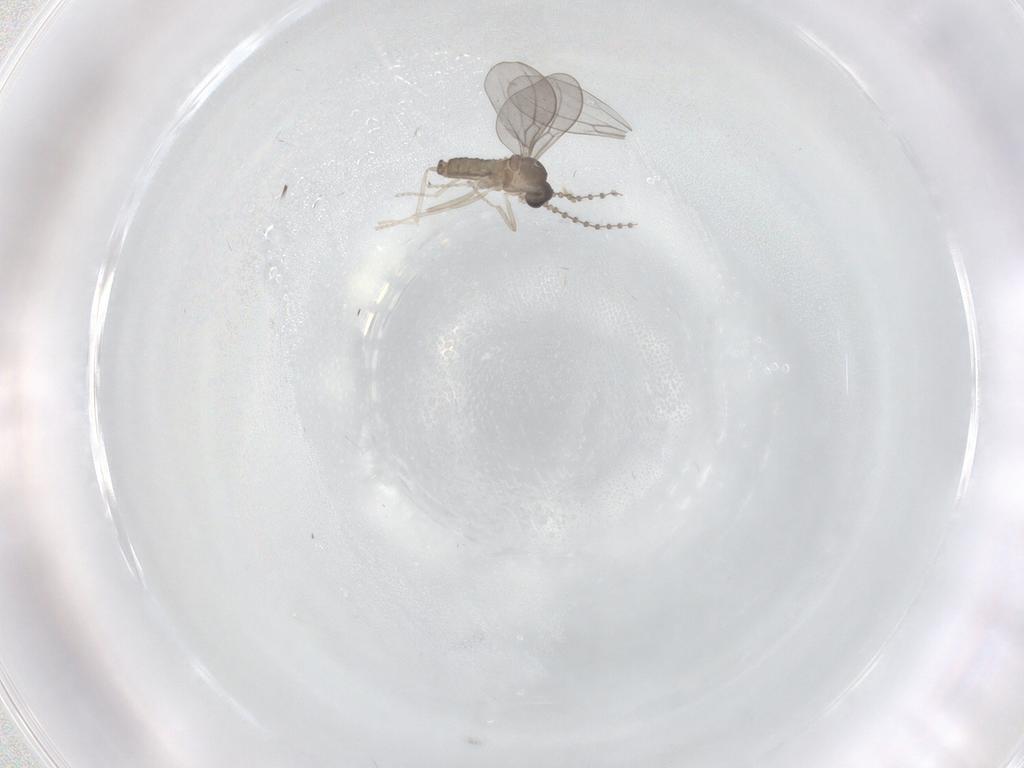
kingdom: Animalia
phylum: Arthropoda
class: Insecta
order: Diptera
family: Cecidomyiidae
